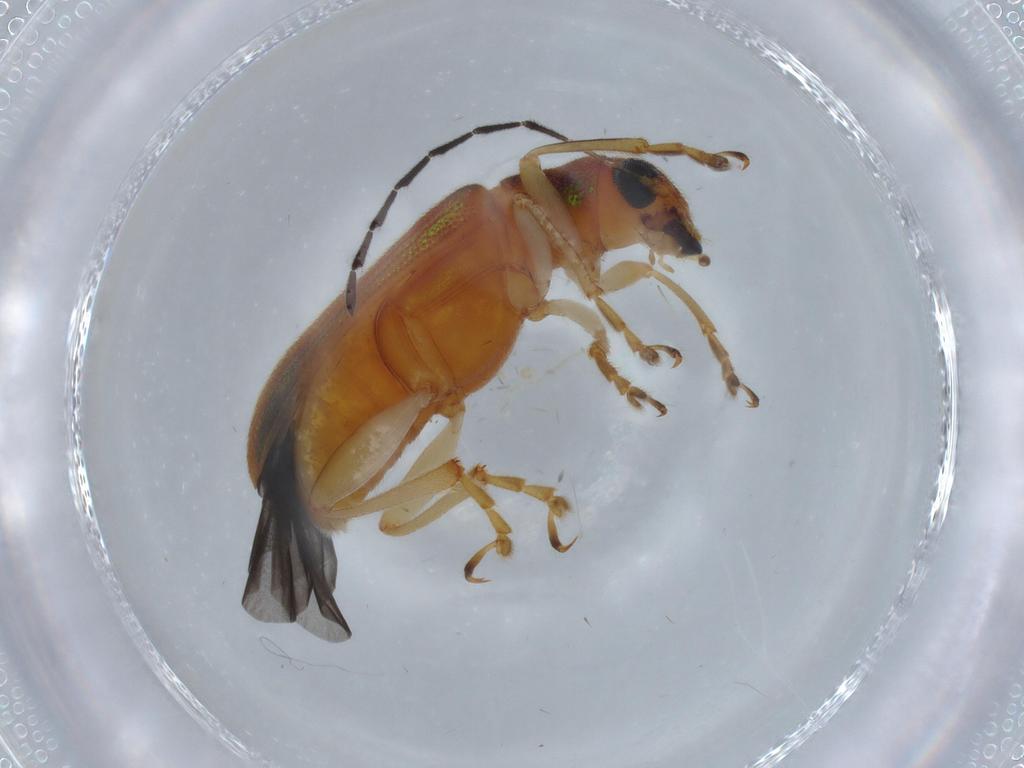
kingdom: Animalia
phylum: Arthropoda
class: Insecta
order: Coleoptera
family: Chrysomelidae
